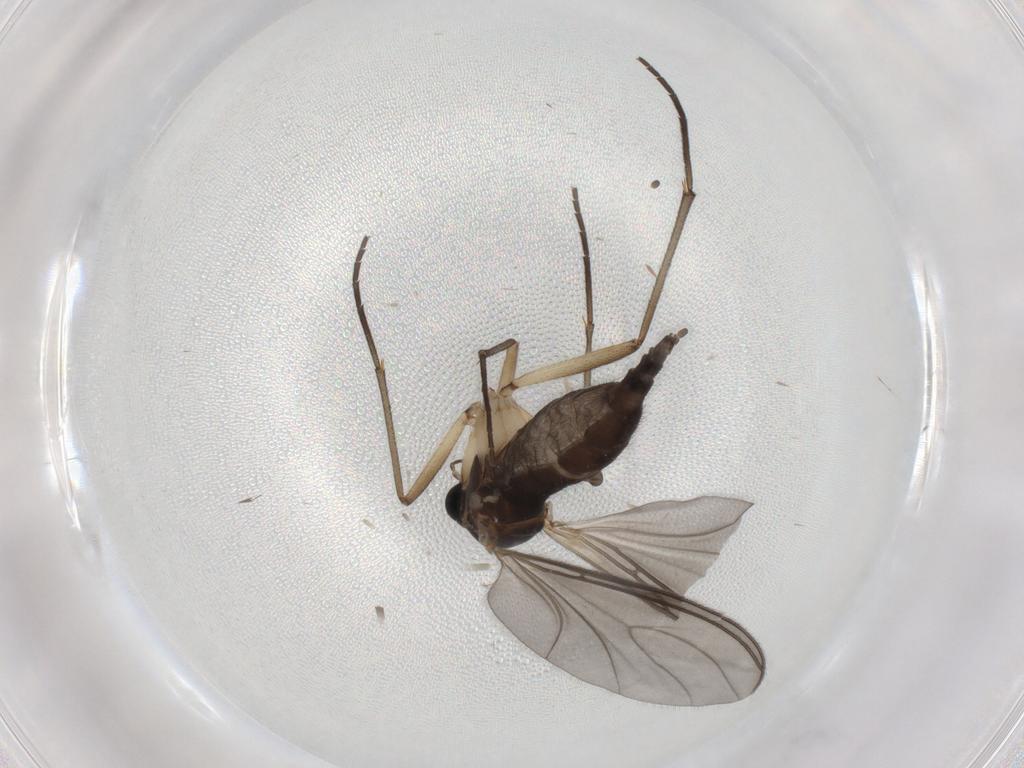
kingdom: Animalia
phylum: Arthropoda
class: Insecta
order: Diptera
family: Sciaridae
